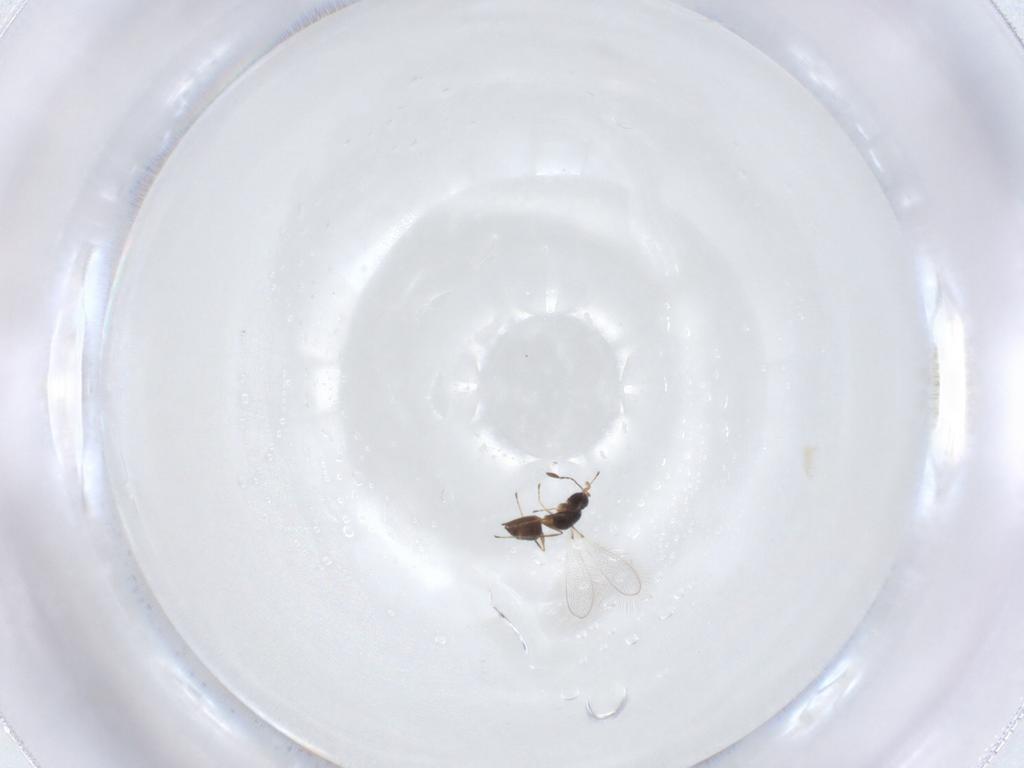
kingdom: Animalia
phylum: Arthropoda
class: Insecta
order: Hymenoptera
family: Mymaridae
